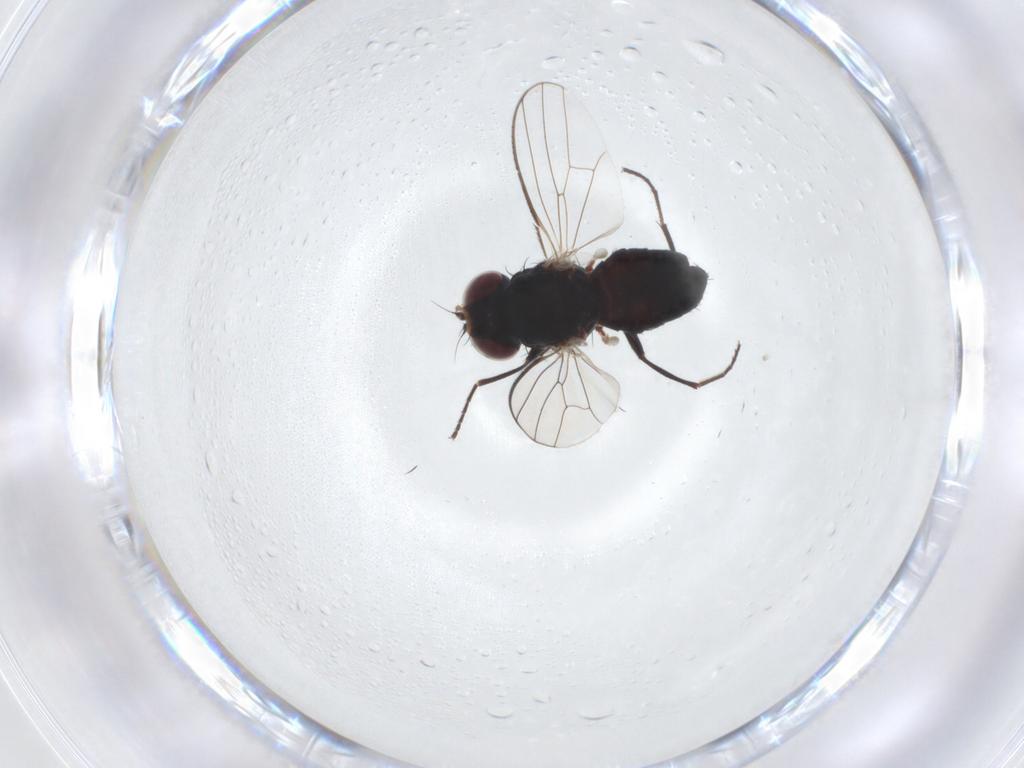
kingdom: Animalia
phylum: Arthropoda
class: Insecta
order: Diptera
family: Carnidae
